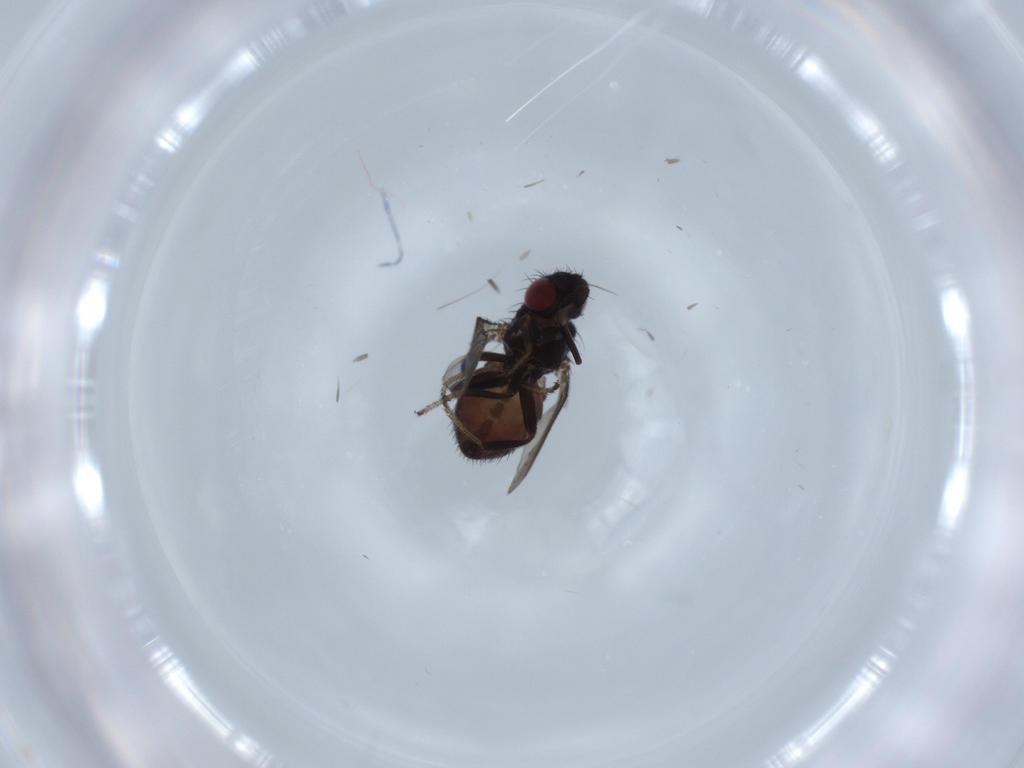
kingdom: Animalia
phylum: Arthropoda
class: Insecta
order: Diptera
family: Milichiidae
